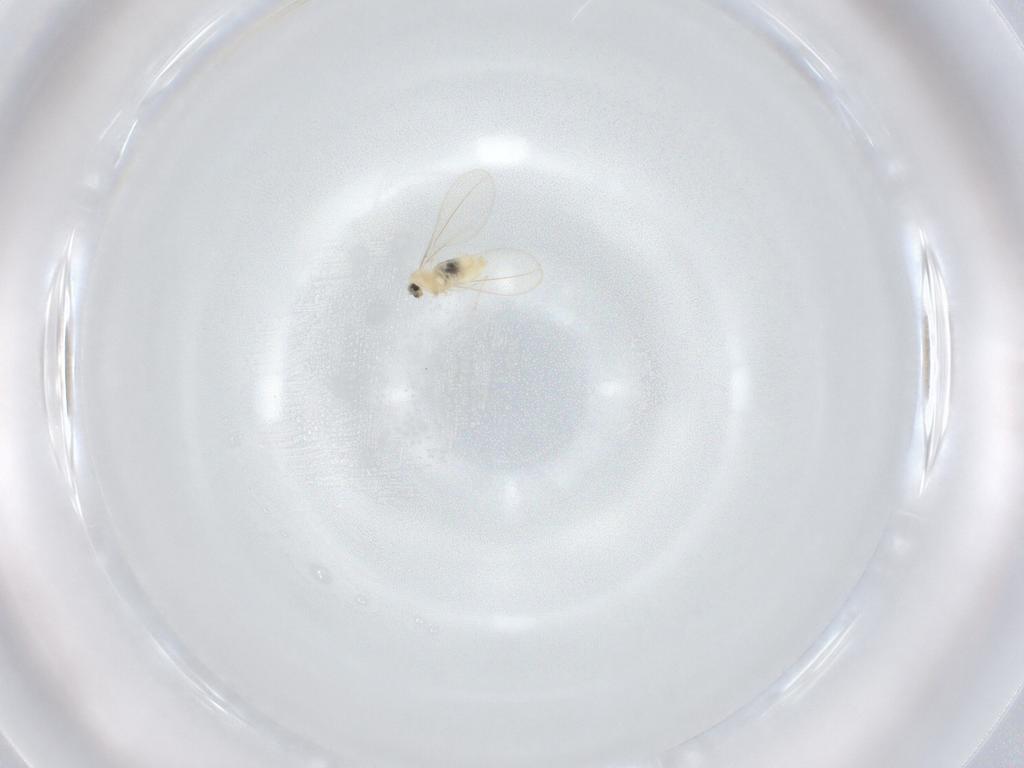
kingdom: Animalia
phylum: Arthropoda
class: Insecta
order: Diptera
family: Cecidomyiidae
